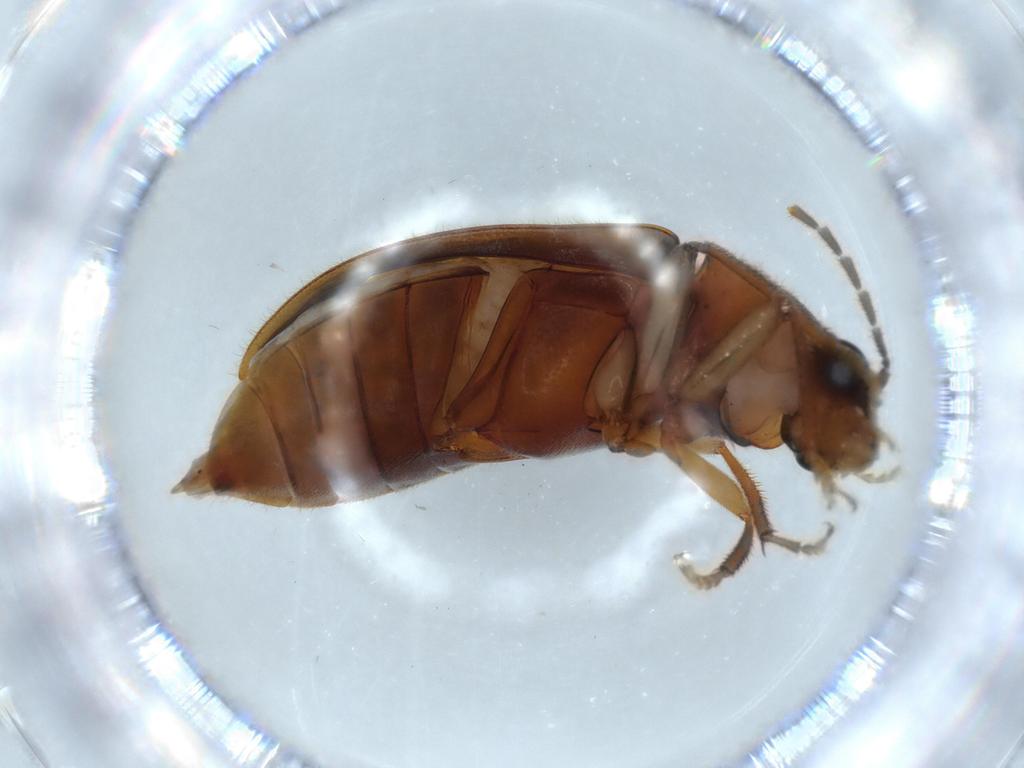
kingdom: Animalia
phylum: Arthropoda
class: Insecta
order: Coleoptera
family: Ptilodactylidae
